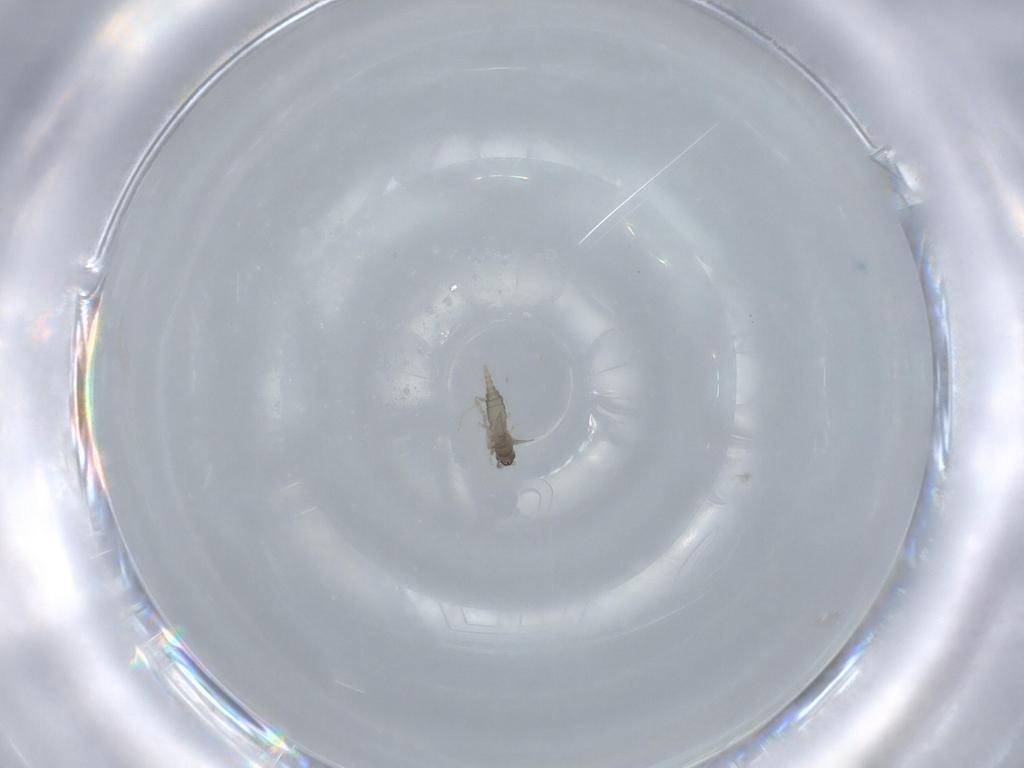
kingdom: Animalia
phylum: Arthropoda
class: Insecta
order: Diptera
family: Cecidomyiidae
